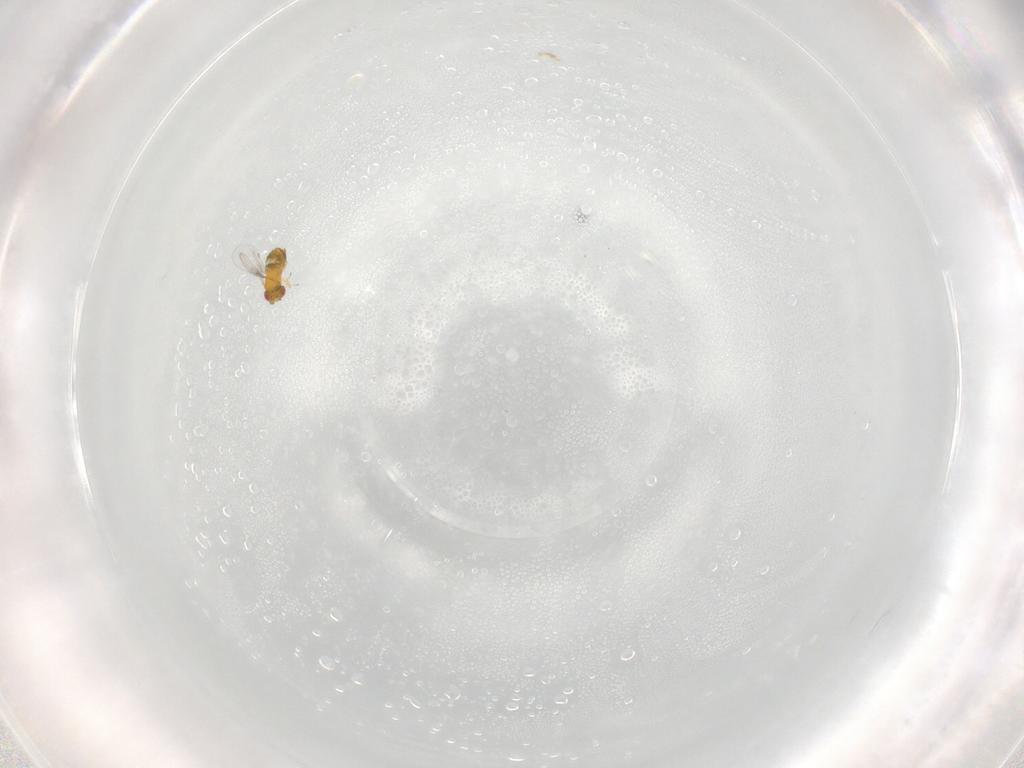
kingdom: Animalia
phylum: Arthropoda
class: Insecta
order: Hymenoptera
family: Trichogrammatidae
